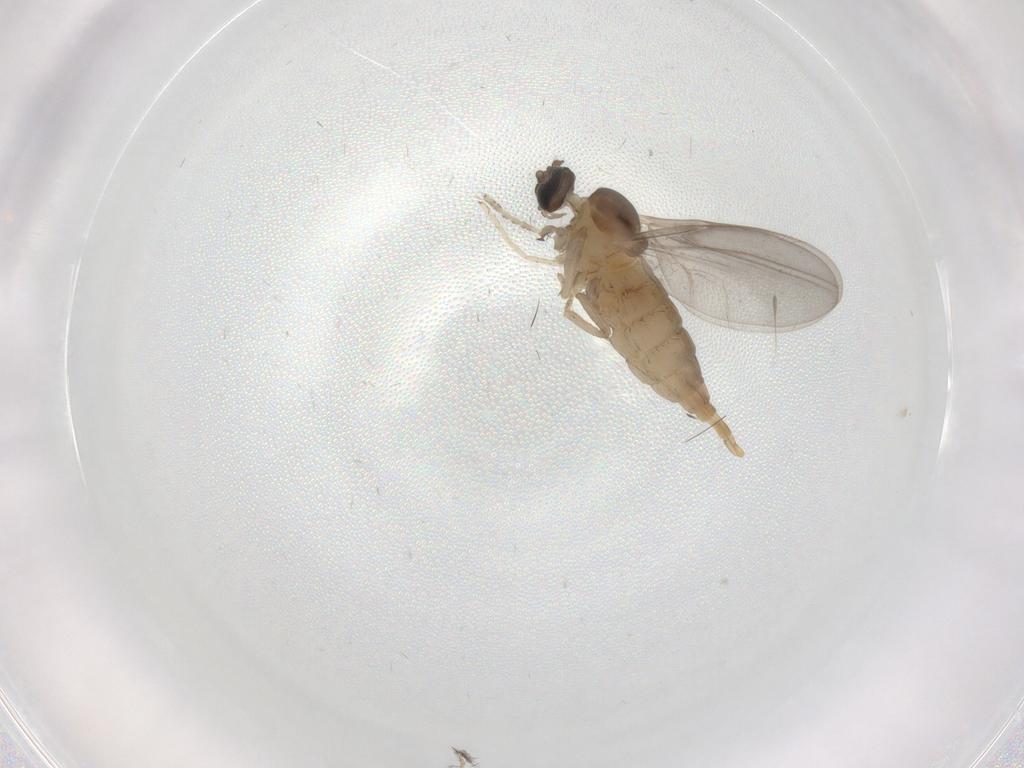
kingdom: Animalia
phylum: Arthropoda
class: Insecta
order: Diptera
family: Cecidomyiidae
